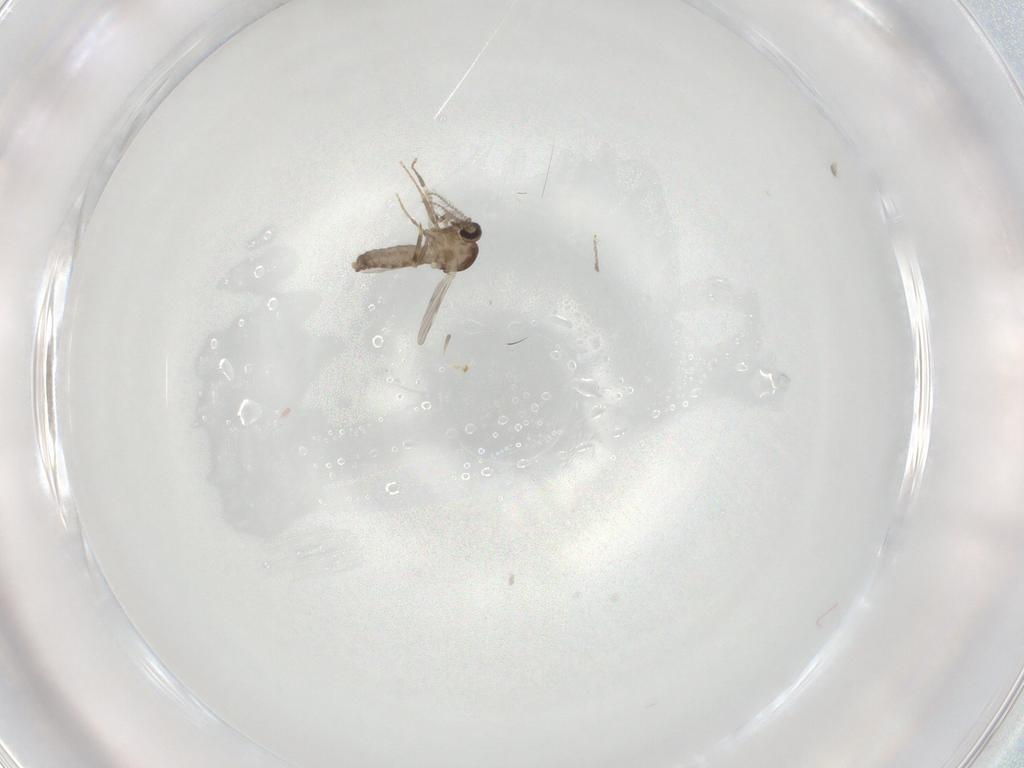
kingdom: Animalia
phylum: Arthropoda
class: Insecta
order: Diptera
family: Ceratopogonidae
